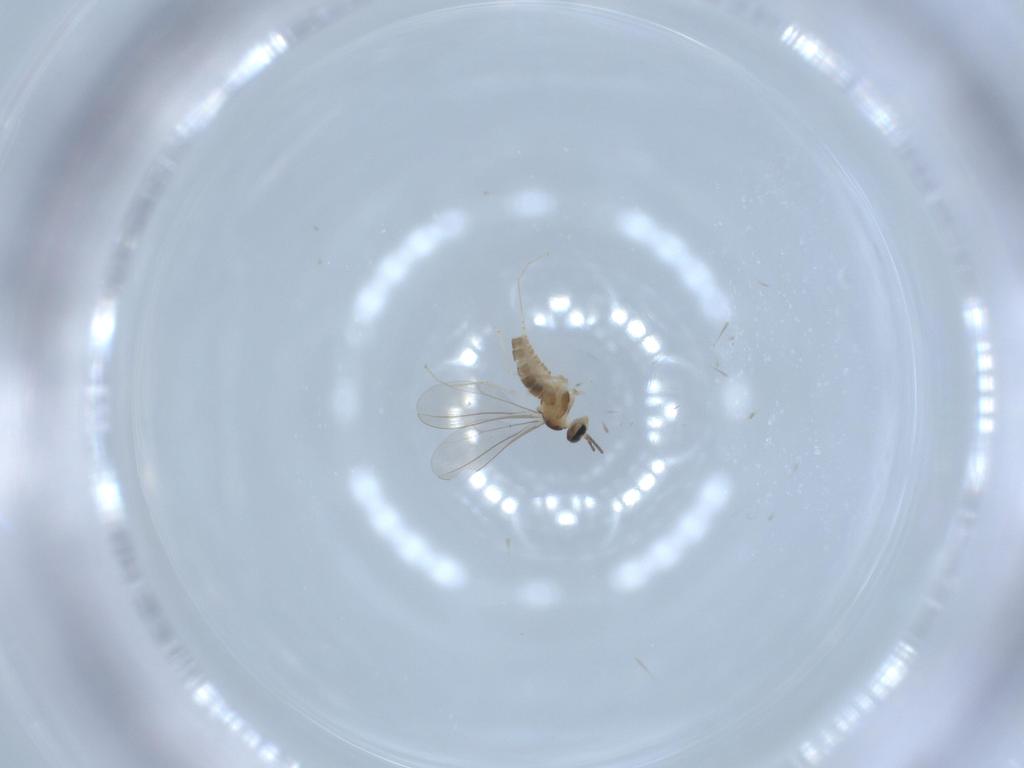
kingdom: Animalia
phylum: Arthropoda
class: Insecta
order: Diptera
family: Cecidomyiidae
